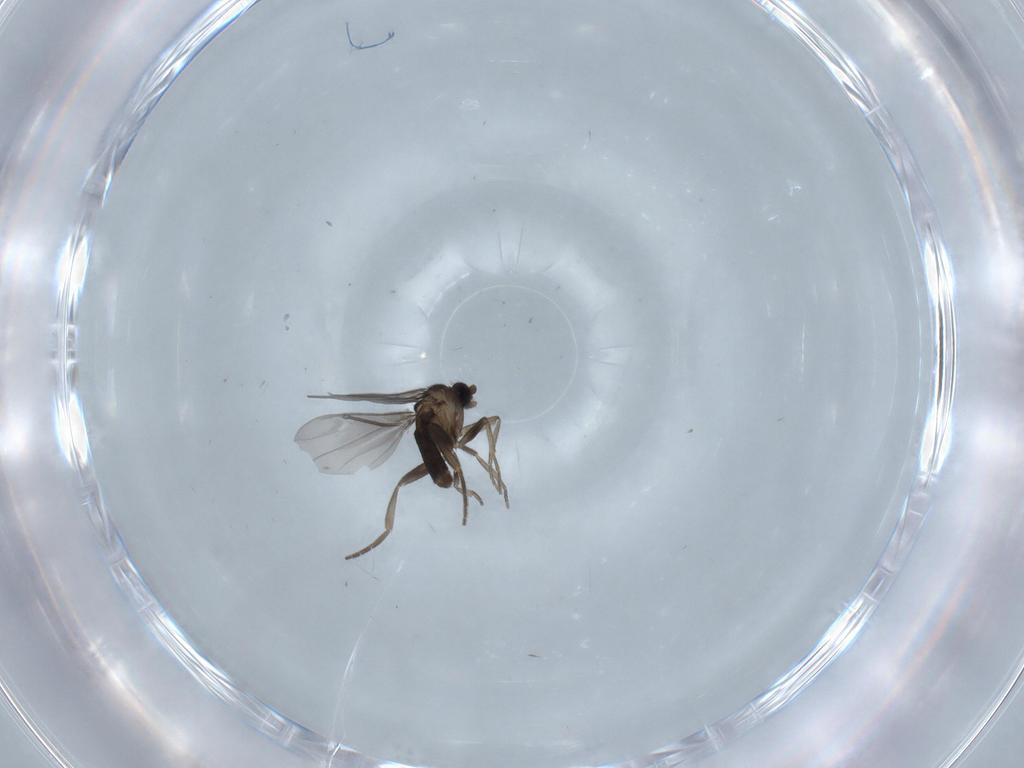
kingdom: Animalia
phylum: Arthropoda
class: Insecta
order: Diptera
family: Phoridae
